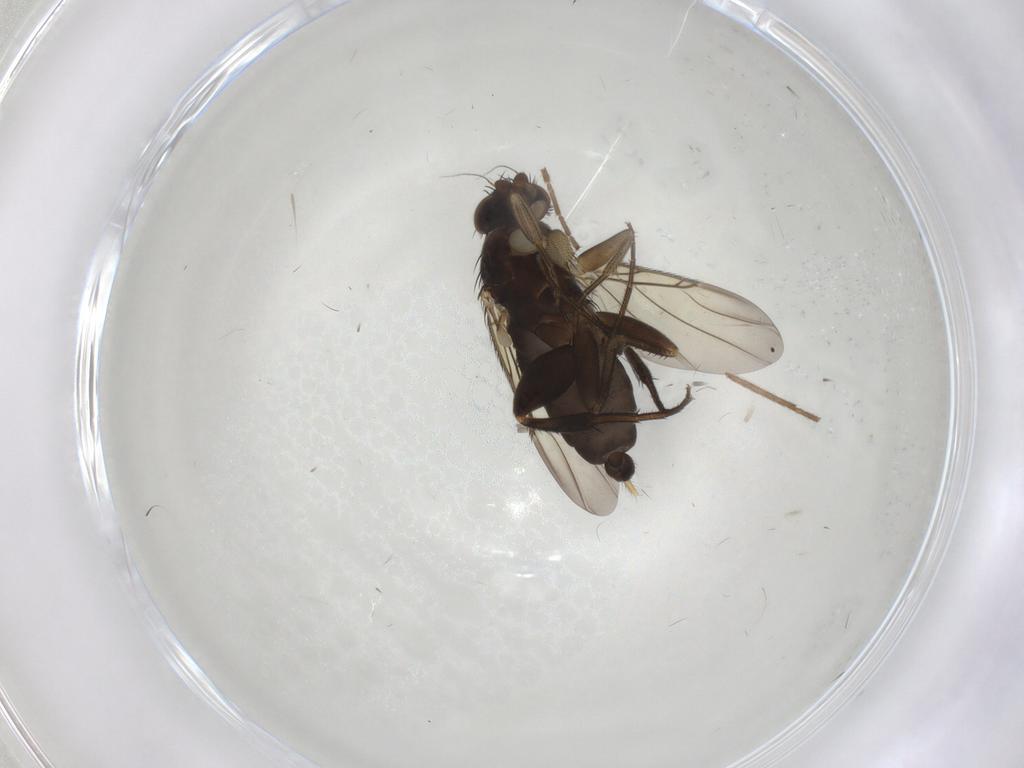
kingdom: Animalia
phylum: Arthropoda
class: Insecta
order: Diptera
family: Phoridae
